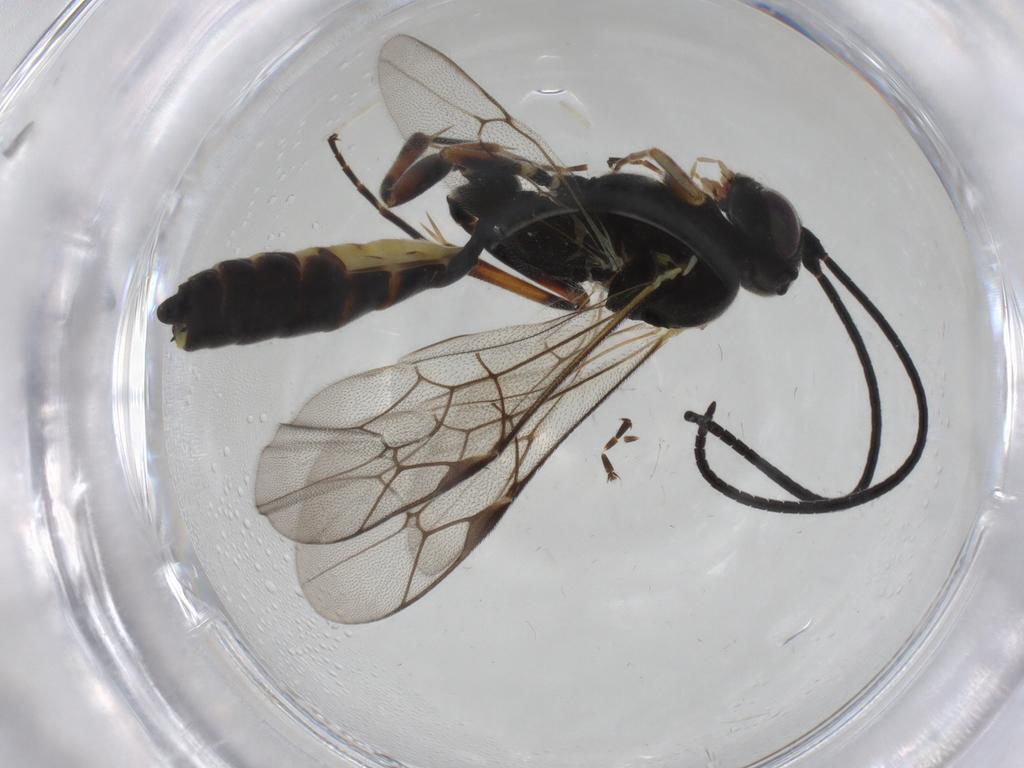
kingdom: Animalia
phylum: Arthropoda
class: Insecta
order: Hymenoptera
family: Ichneumonidae
